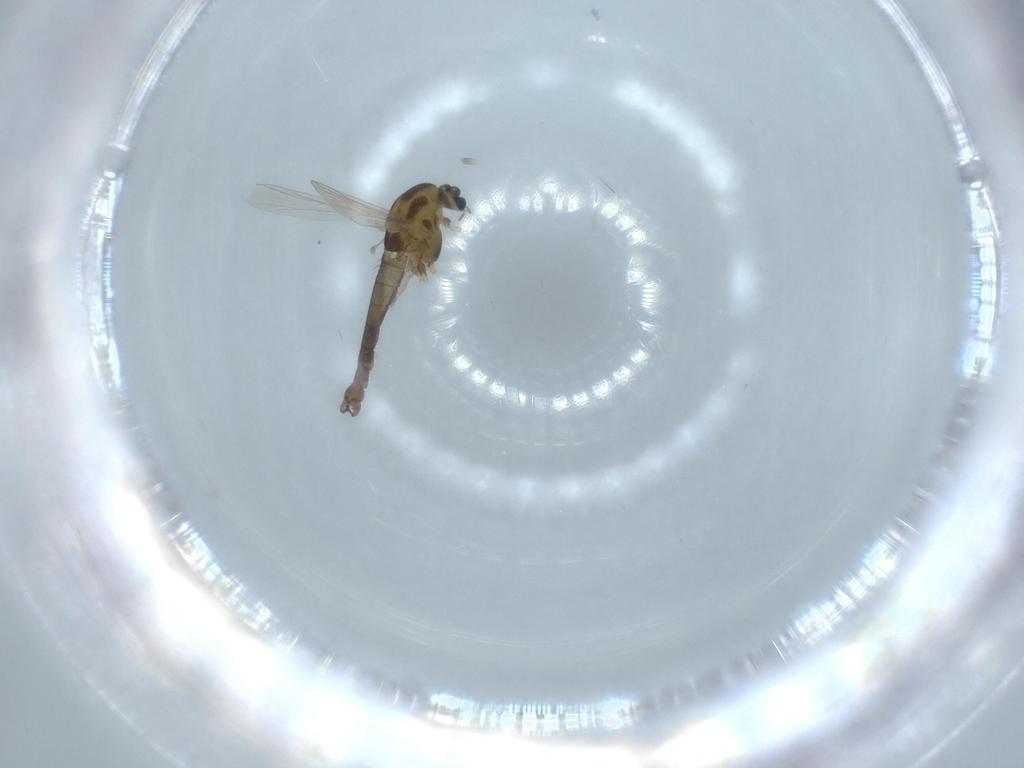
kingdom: Animalia
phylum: Arthropoda
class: Insecta
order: Diptera
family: Chironomidae
